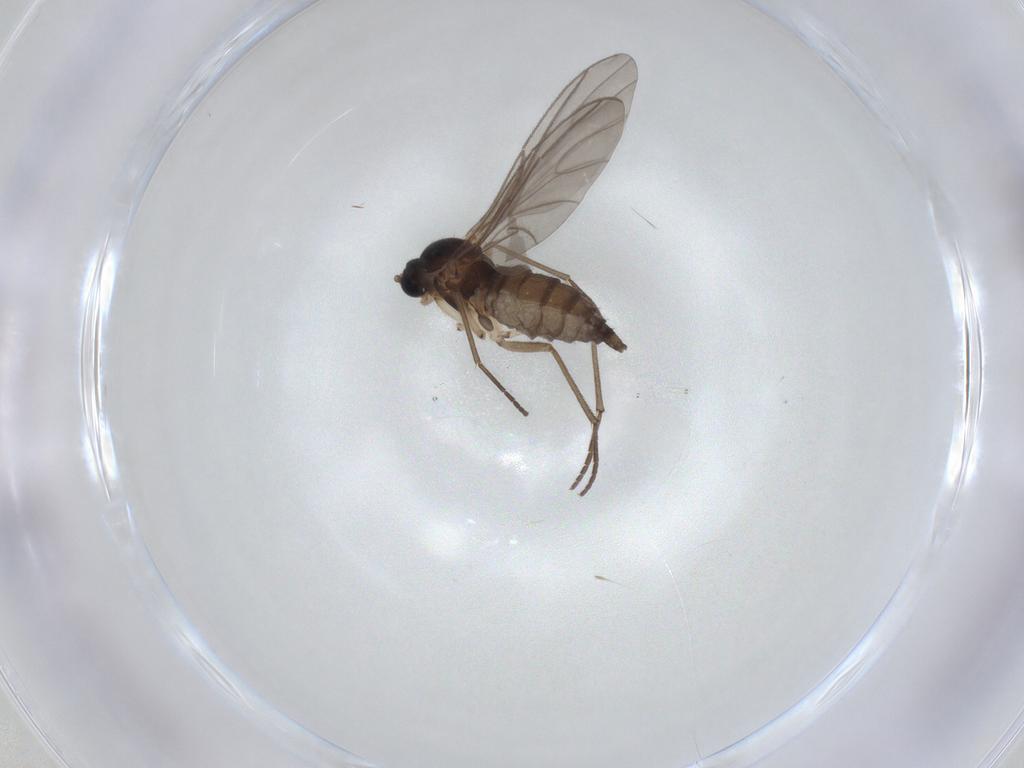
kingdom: Animalia
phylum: Arthropoda
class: Insecta
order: Diptera
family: Sciaridae
